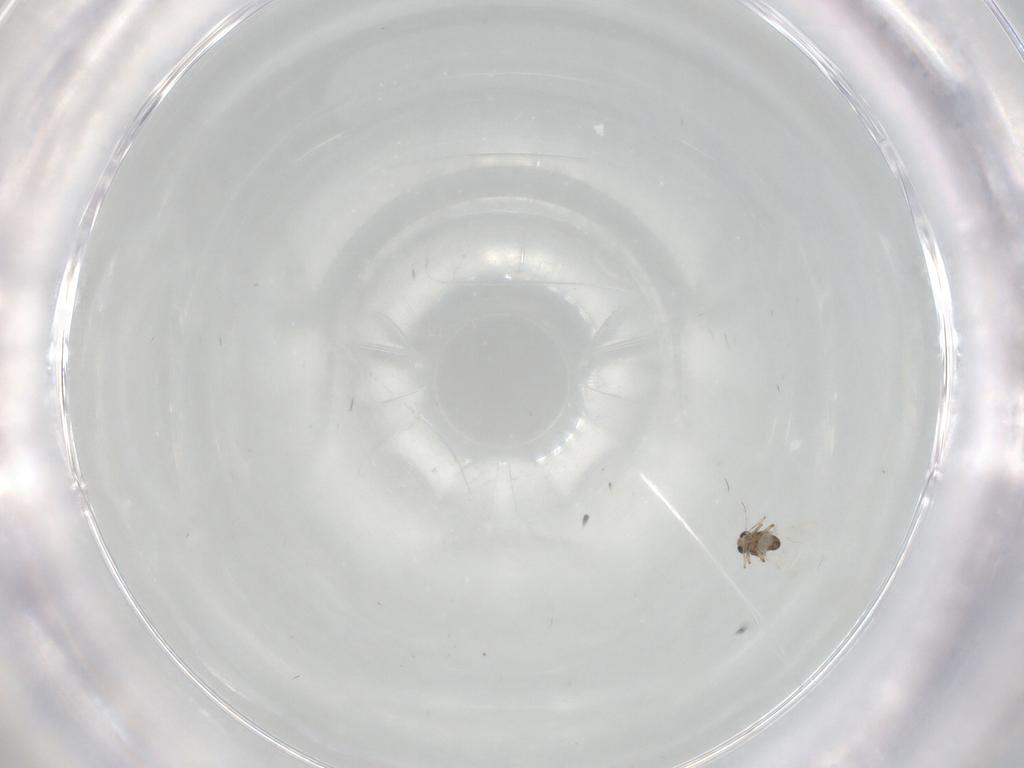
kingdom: Animalia
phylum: Arthropoda
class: Insecta
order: Diptera
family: Ceratopogonidae
